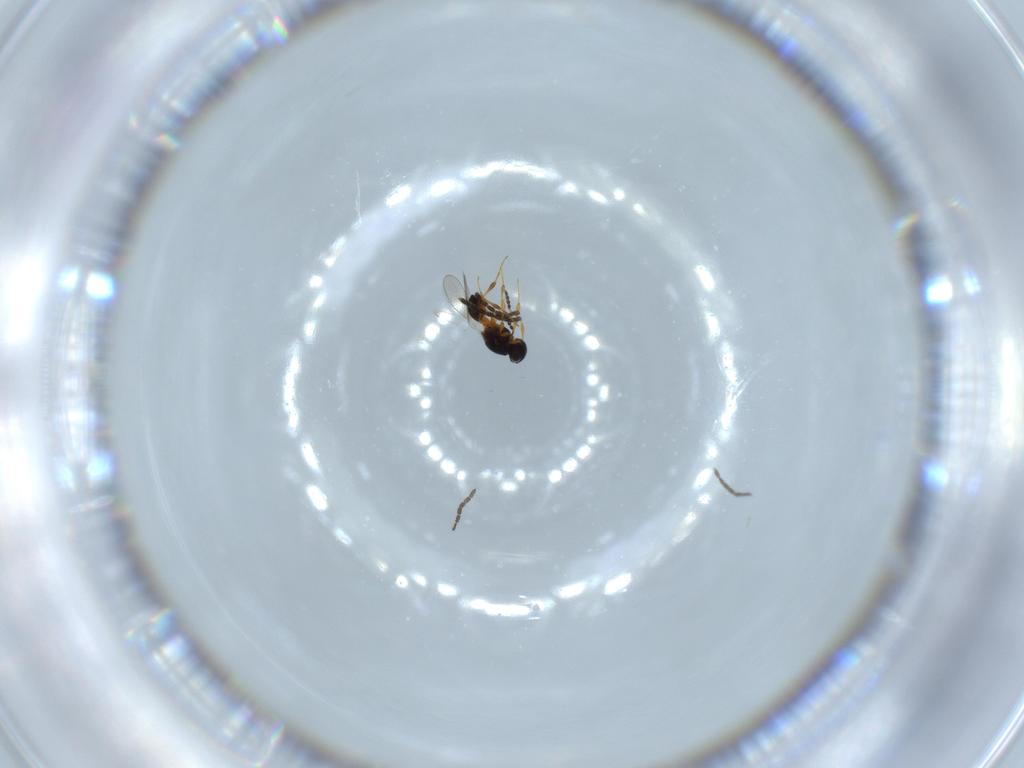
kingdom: Animalia
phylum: Arthropoda
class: Insecta
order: Hymenoptera
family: Platygastridae
